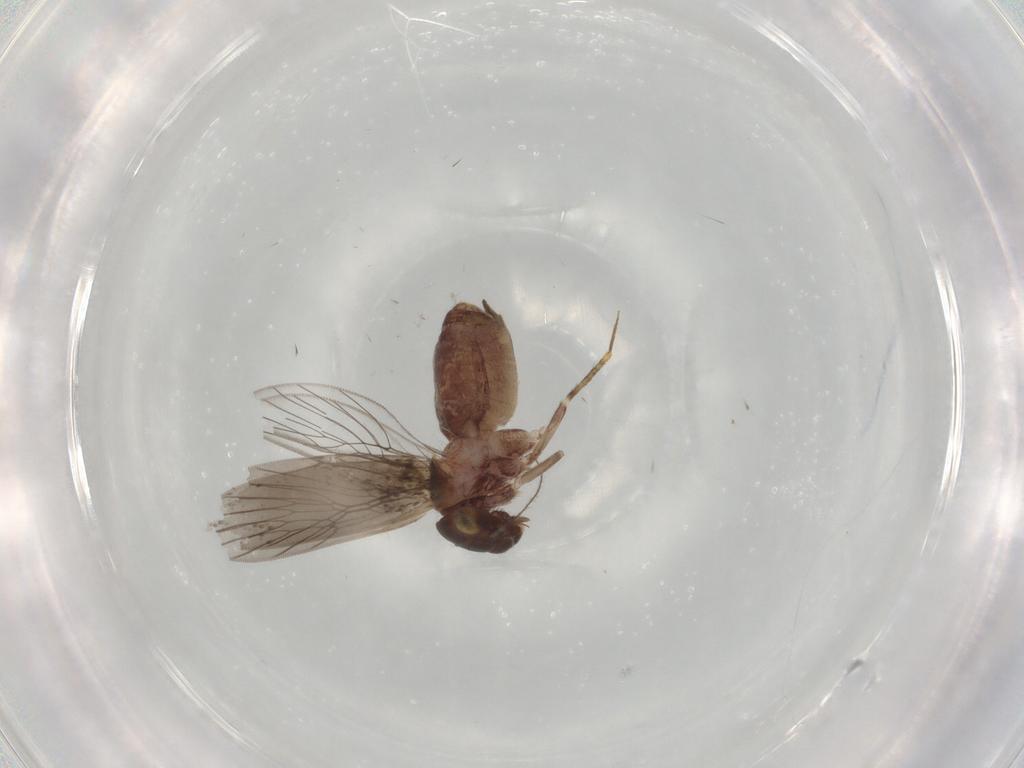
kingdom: Animalia
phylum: Arthropoda
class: Insecta
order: Psocodea
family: Lepidopsocidae
